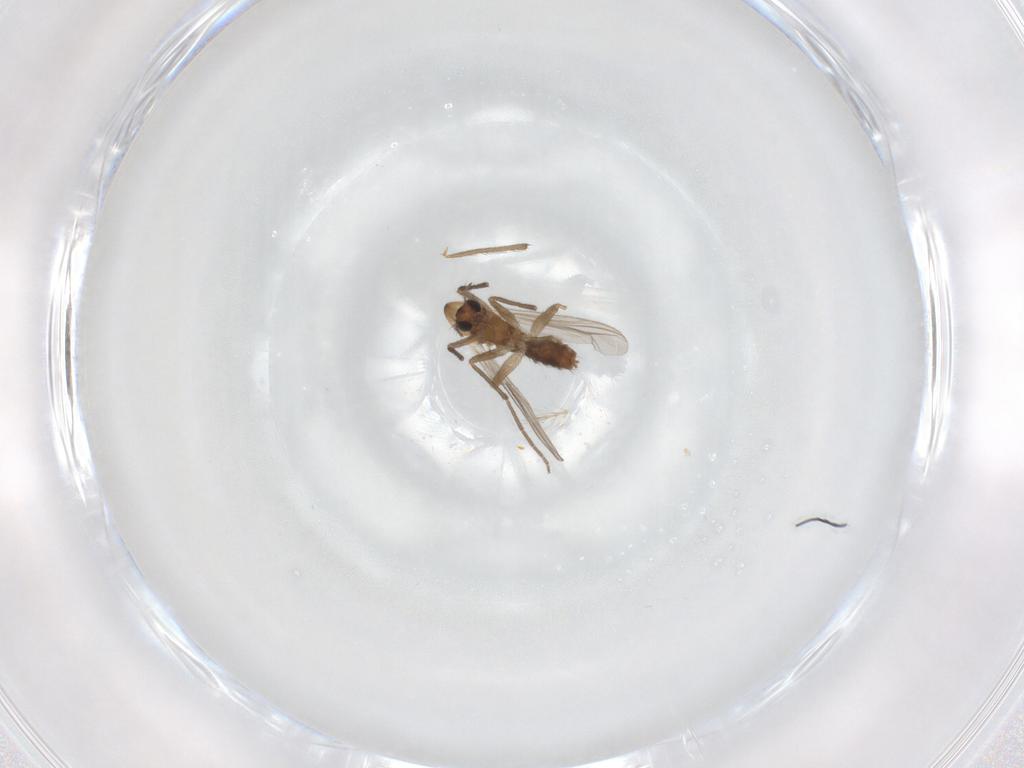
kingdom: Animalia
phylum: Arthropoda
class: Insecta
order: Diptera
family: Chironomidae
